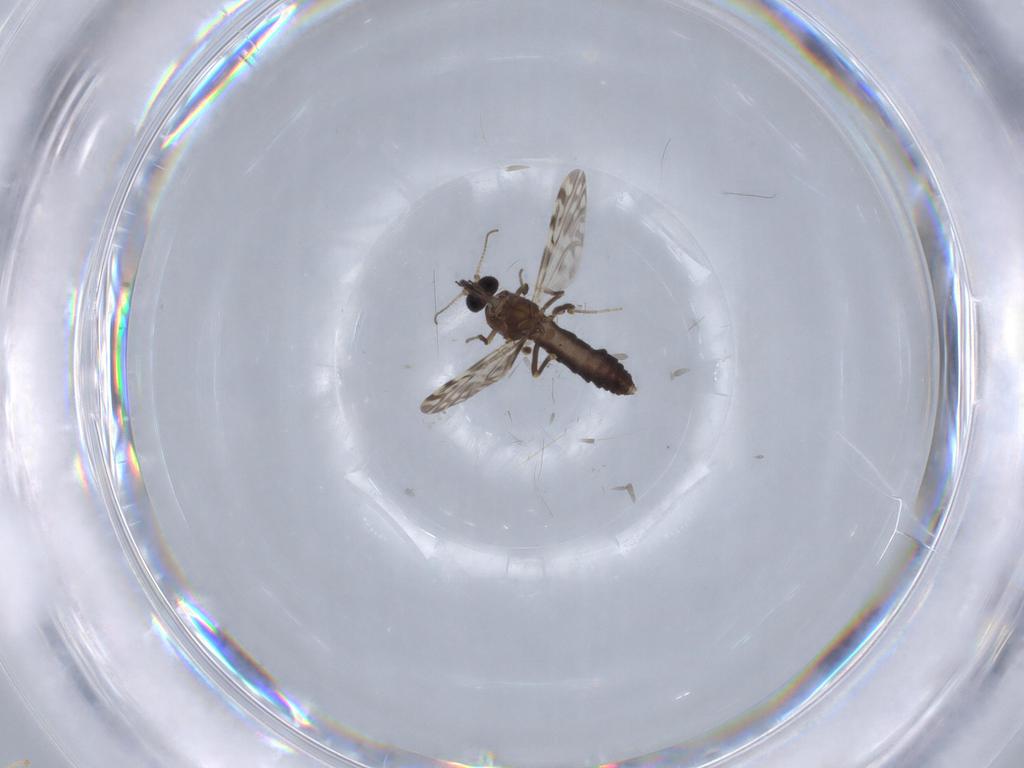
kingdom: Animalia
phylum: Arthropoda
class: Insecta
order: Diptera
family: Ceratopogonidae
